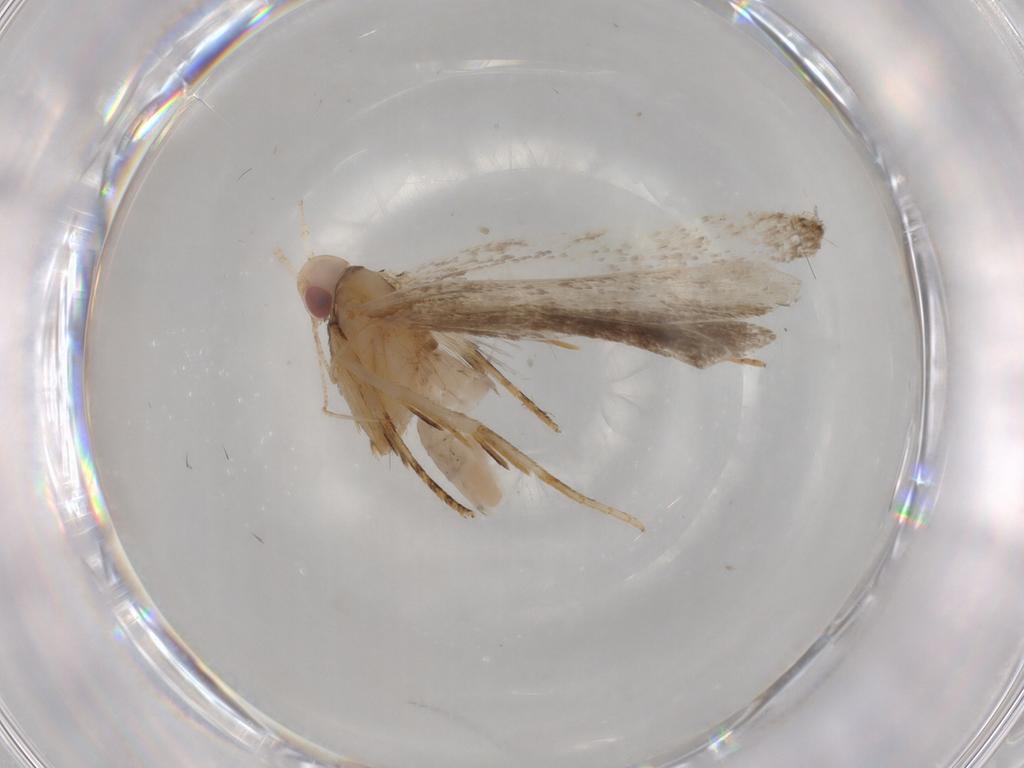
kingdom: Animalia
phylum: Arthropoda
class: Insecta
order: Lepidoptera
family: Gelechiidae
